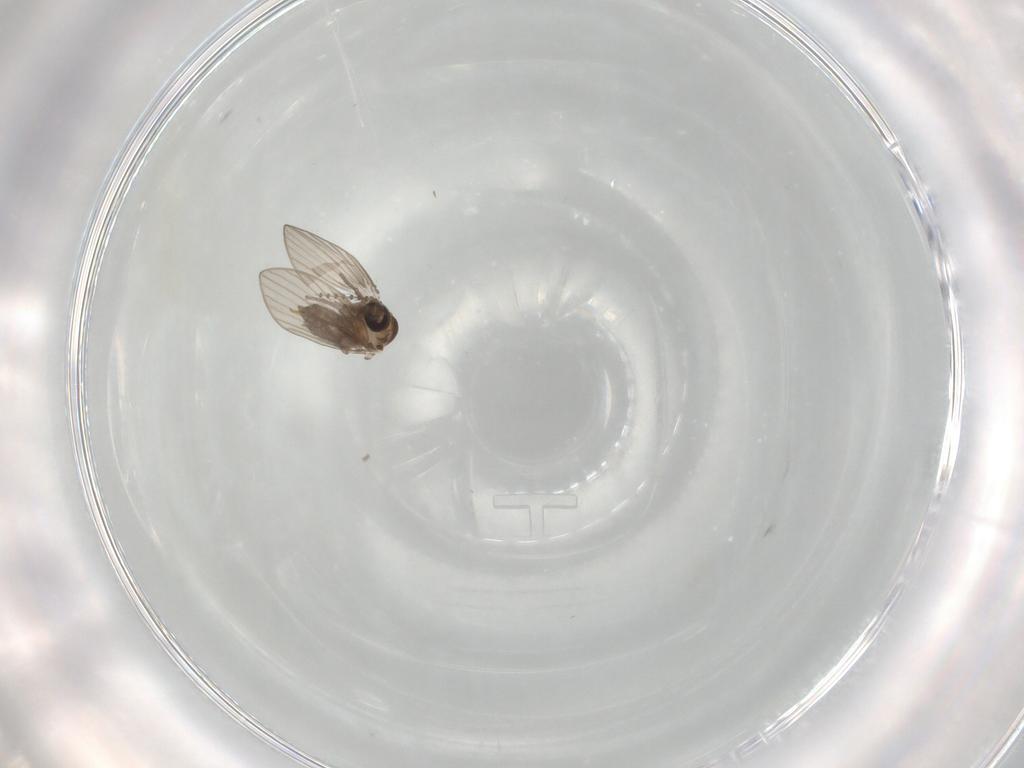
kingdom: Animalia
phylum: Arthropoda
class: Insecta
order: Diptera
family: Psychodidae
